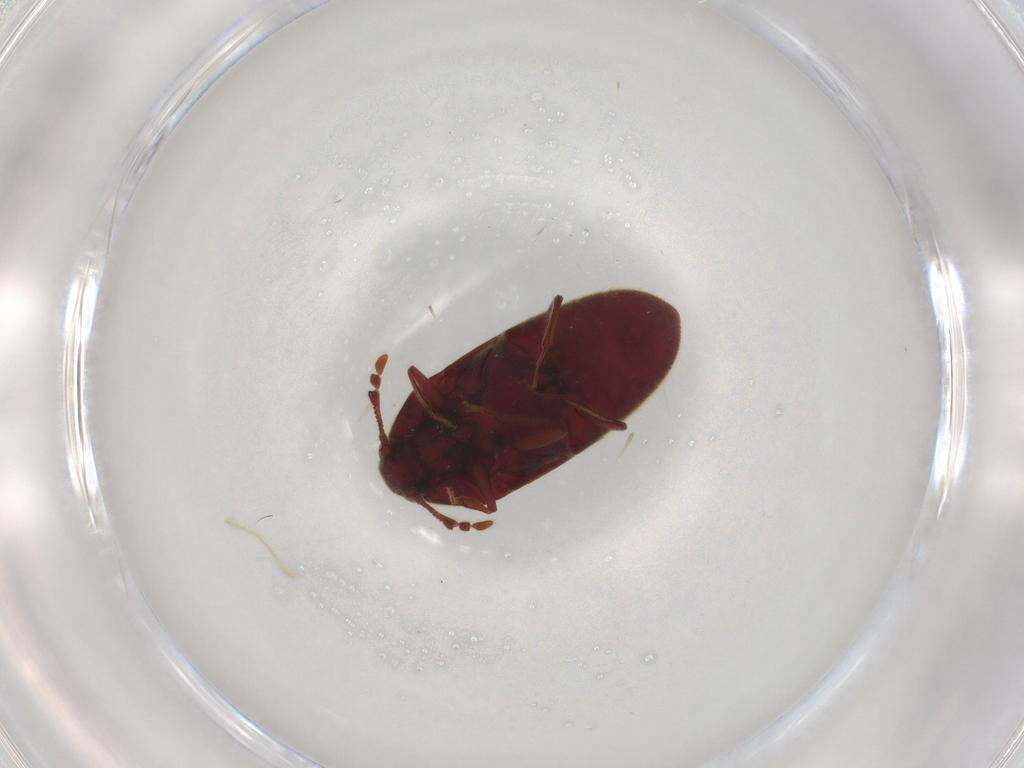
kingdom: Animalia
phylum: Arthropoda
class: Insecta
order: Coleoptera
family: Throscidae
